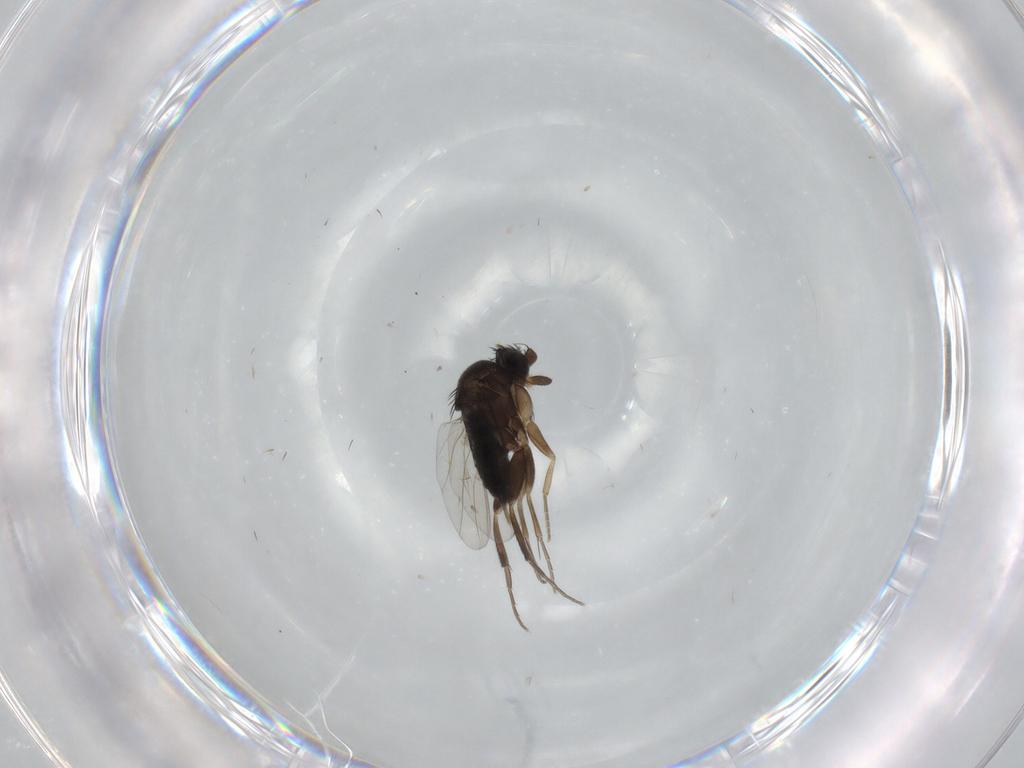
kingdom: Animalia
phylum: Arthropoda
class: Insecta
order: Diptera
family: Phoridae
